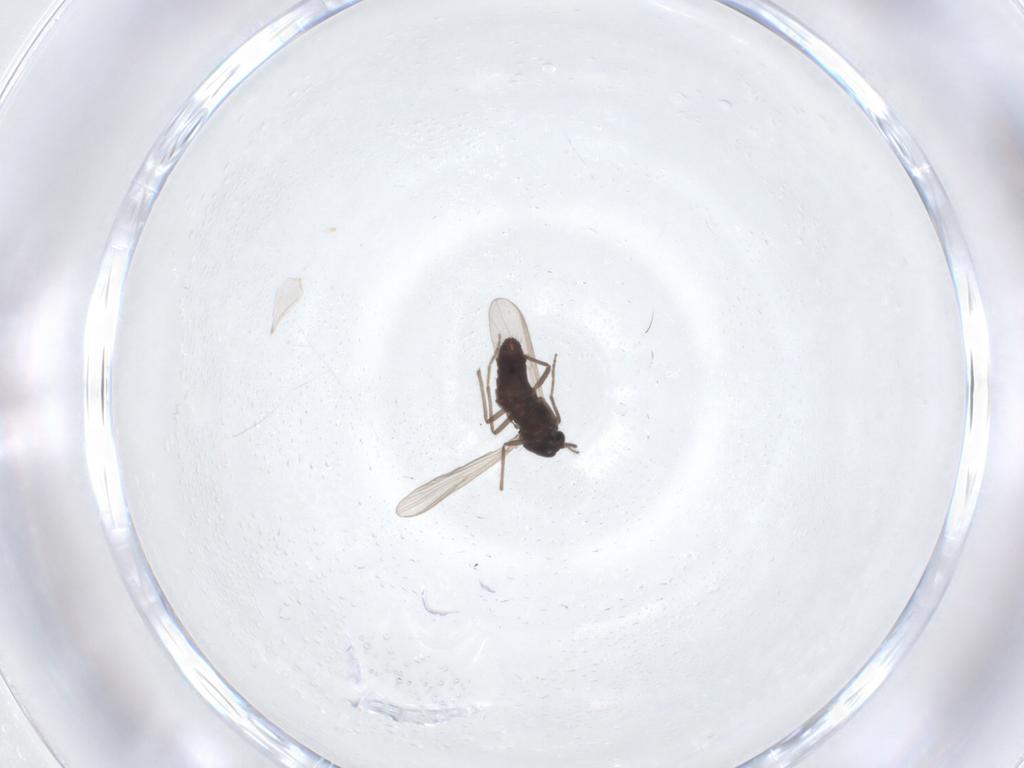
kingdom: Animalia
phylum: Arthropoda
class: Insecta
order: Diptera
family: Chironomidae
